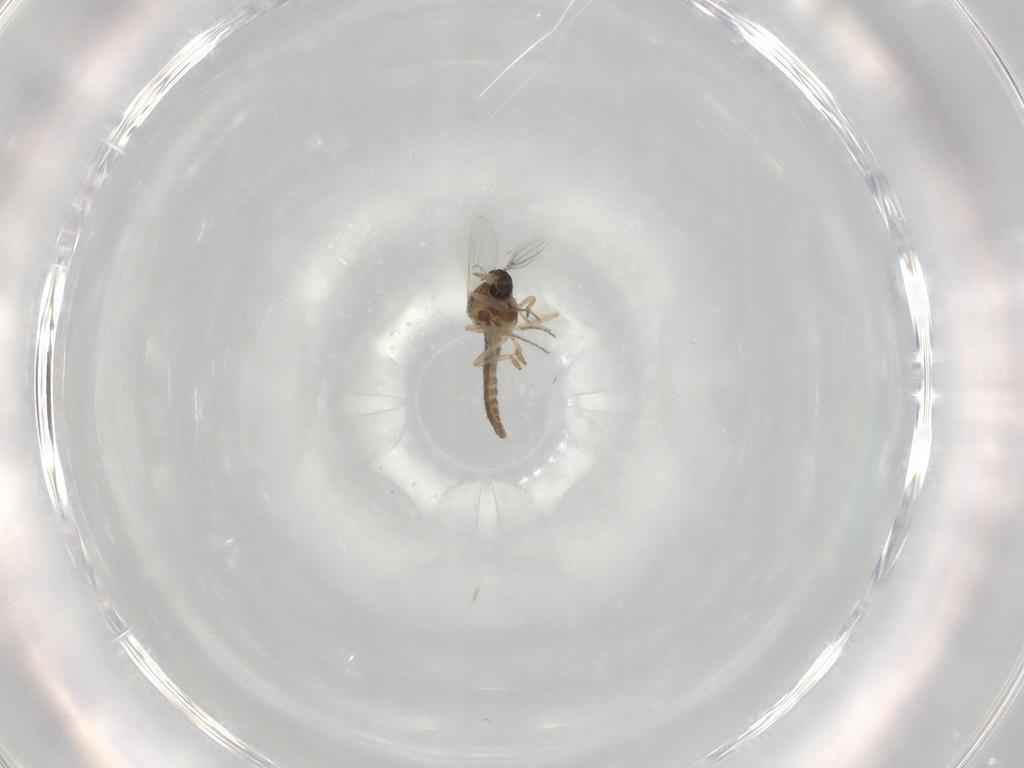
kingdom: Animalia
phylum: Arthropoda
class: Insecta
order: Diptera
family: Ceratopogonidae
